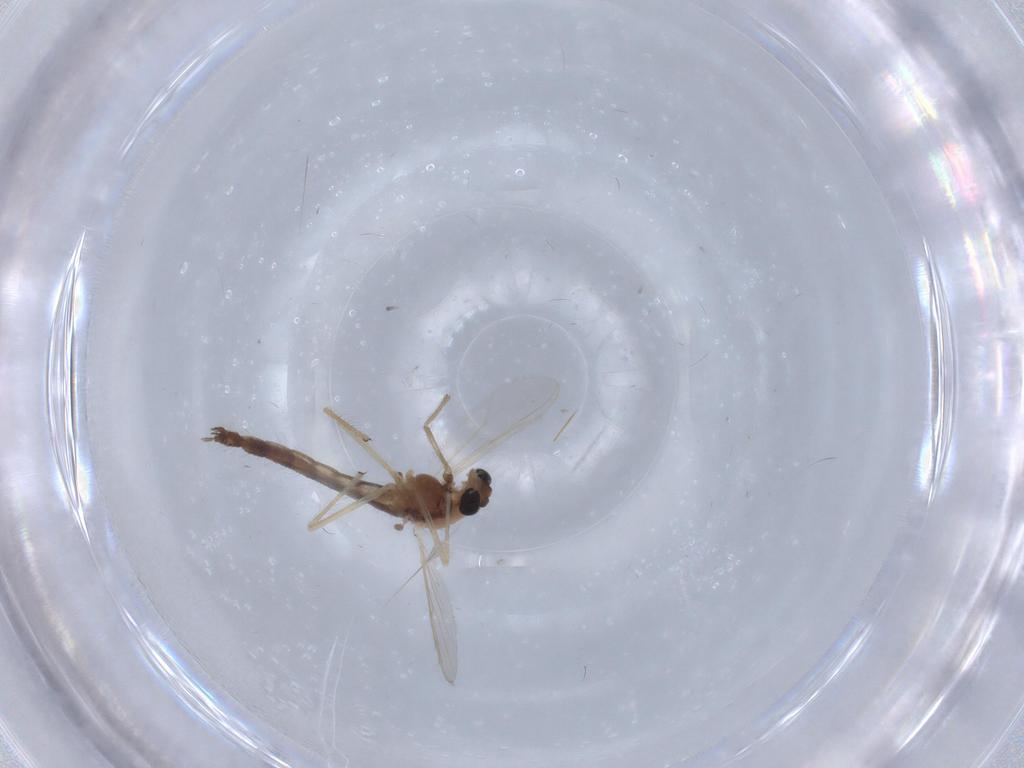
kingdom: Animalia
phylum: Arthropoda
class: Insecta
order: Diptera
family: Chironomidae
